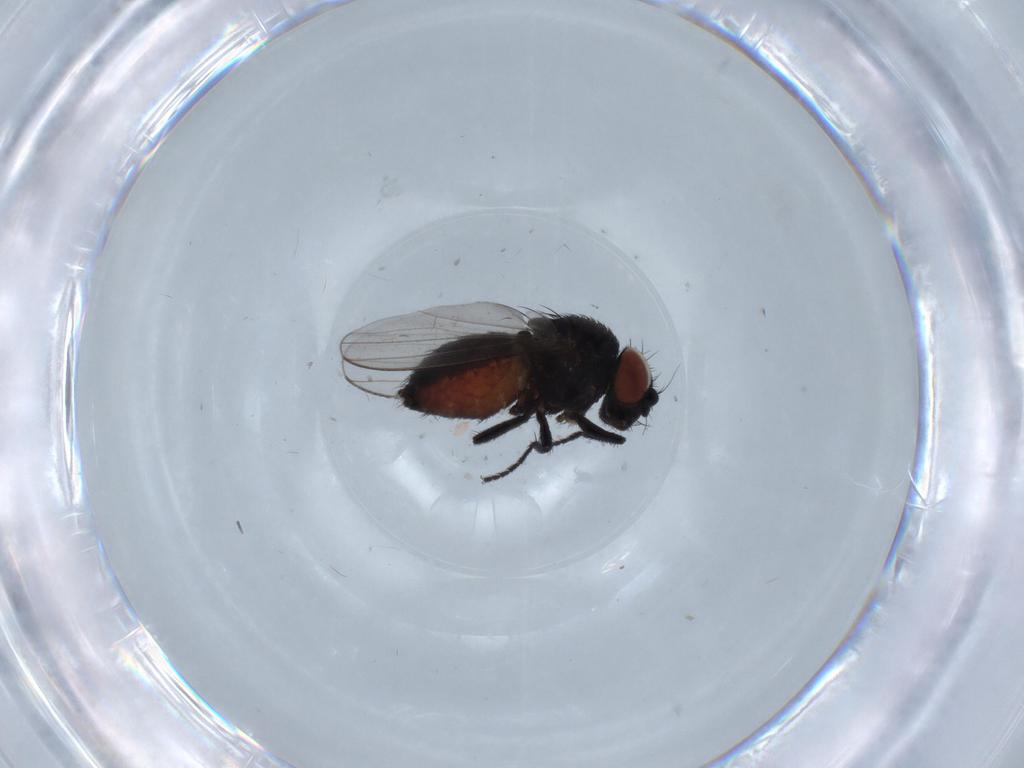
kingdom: Animalia
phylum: Arthropoda
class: Insecta
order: Diptera
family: Milichiidae
